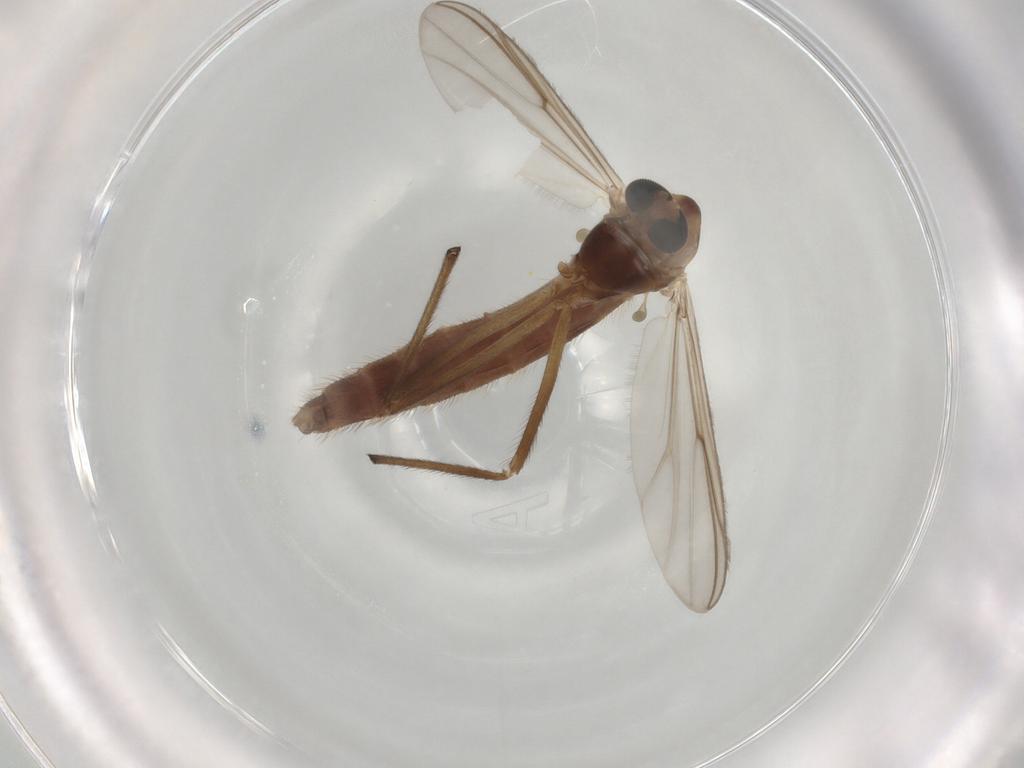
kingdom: Animalia
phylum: Arthropoda
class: Insecta
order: Diptera
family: Chironomidae
